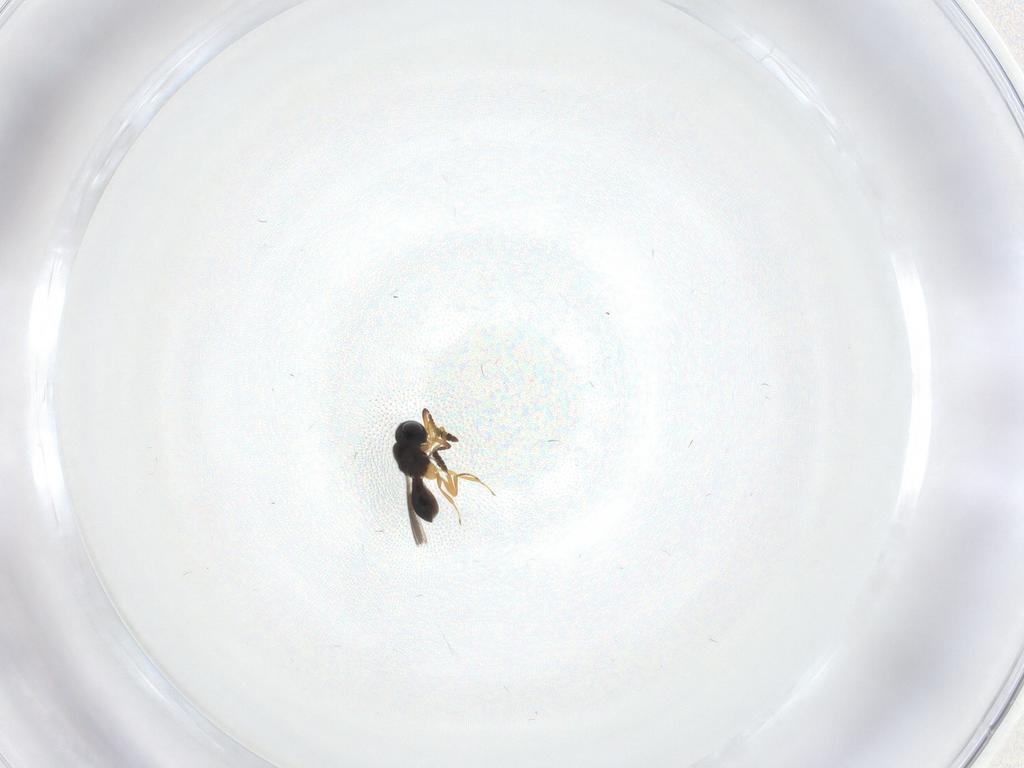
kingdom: Animalia
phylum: Arthropoda
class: Insecta
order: Hymenoptera
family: Scelionidae
